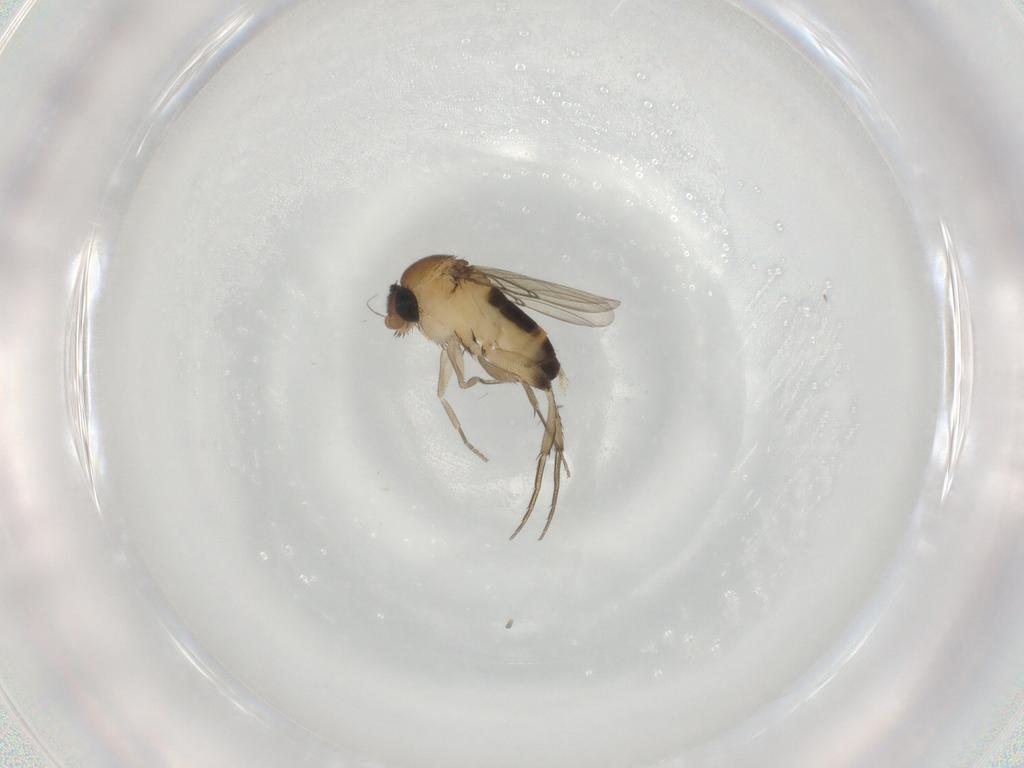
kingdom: Animalia
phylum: Arthropoda
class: Insecta
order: Diptera
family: Phoridae
